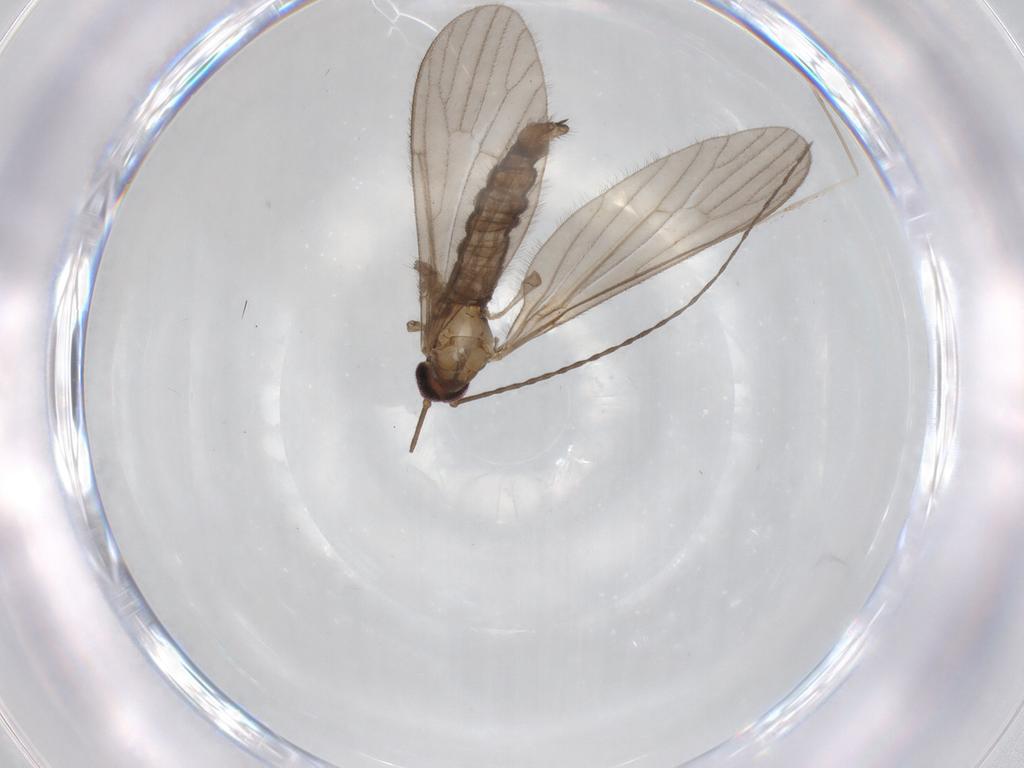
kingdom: Animalia
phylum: Arthropoda
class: Insecta
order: Diptera
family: Limoniidae
